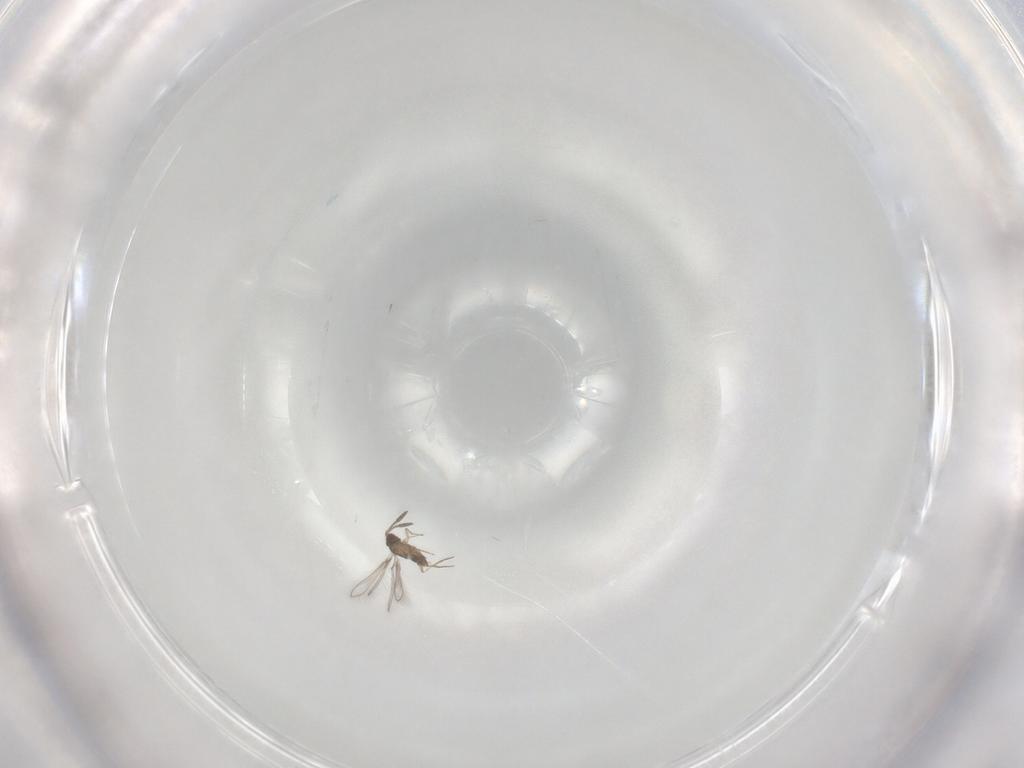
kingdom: Animalia
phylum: Arthropoda
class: Insecta
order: Hymenoptera
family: Mymaridae
